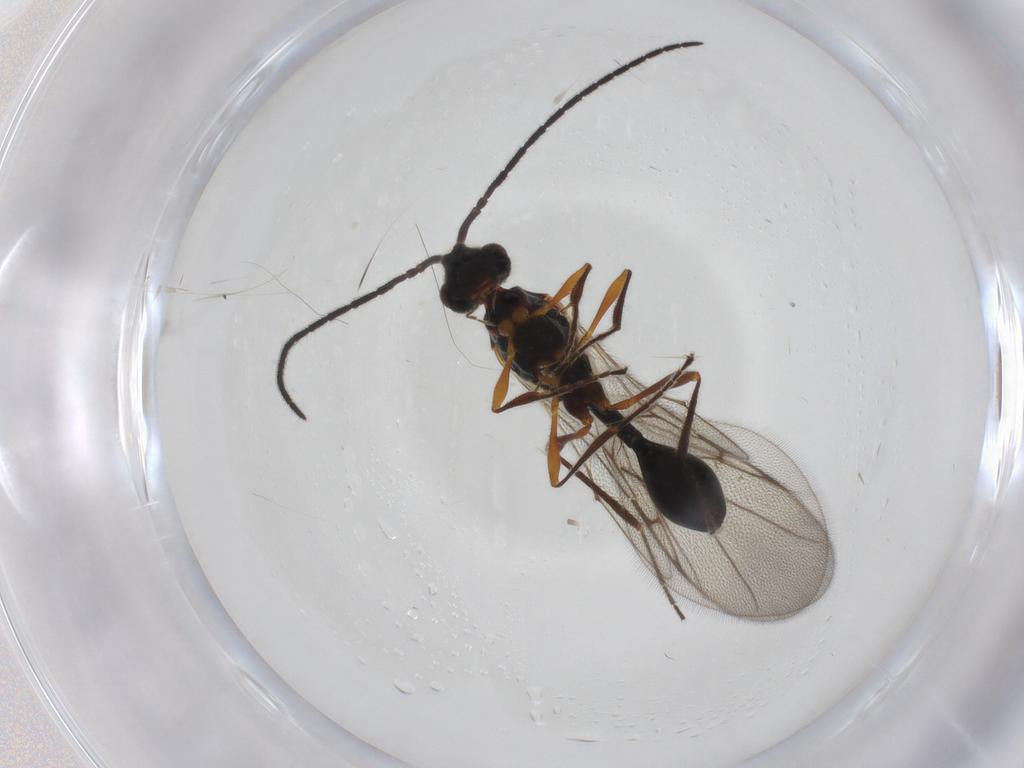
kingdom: Animalia
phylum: Arthropoda
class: Insecta
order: Hymenoptera
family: Diapriidae
